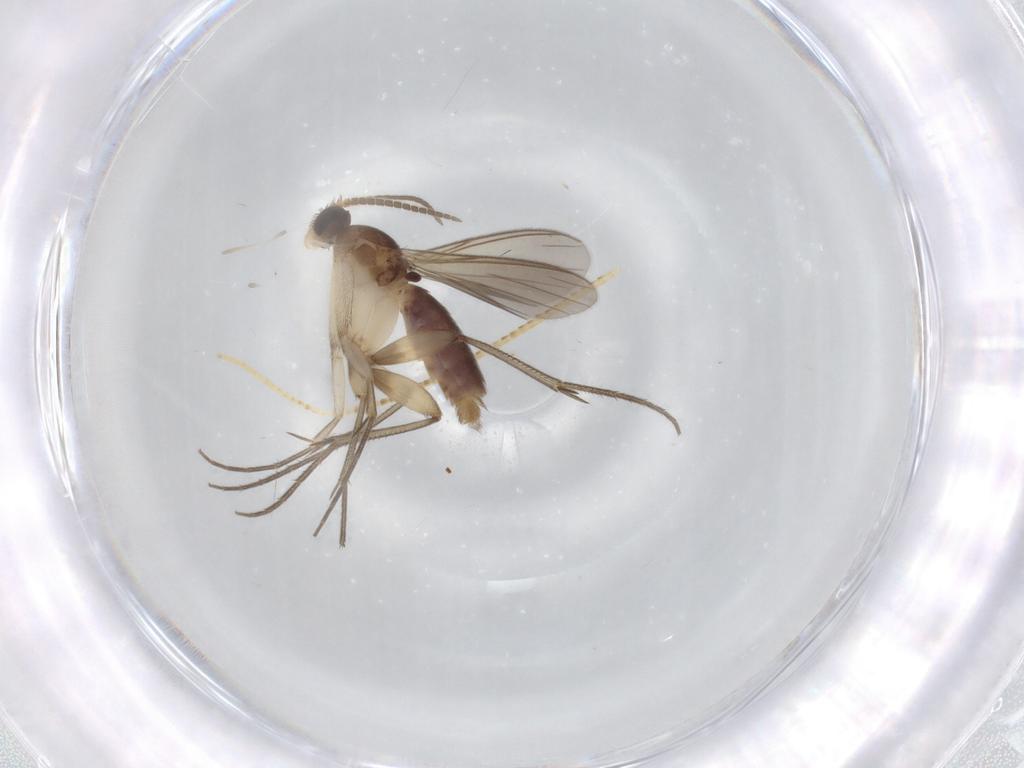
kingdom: Animalia
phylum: Arthropoda
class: Insecta
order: Diptera
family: Mycetophilidae
